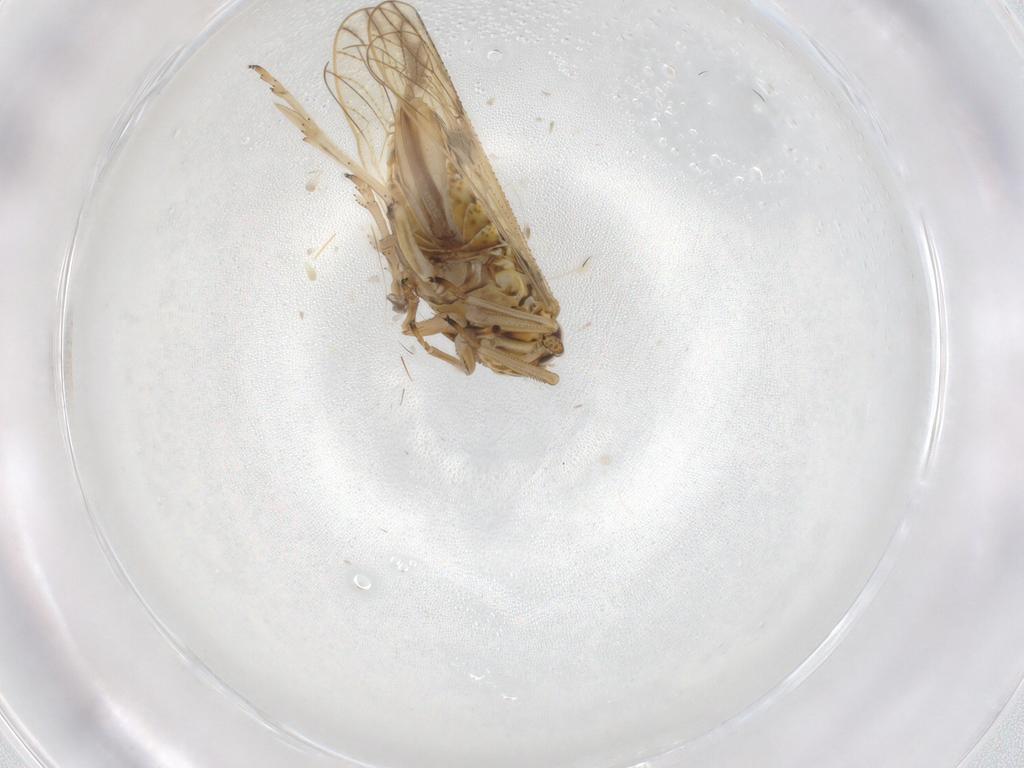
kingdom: Animalia
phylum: Arthropoda
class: Insecta
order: Hemiptera
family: Delphacidae
